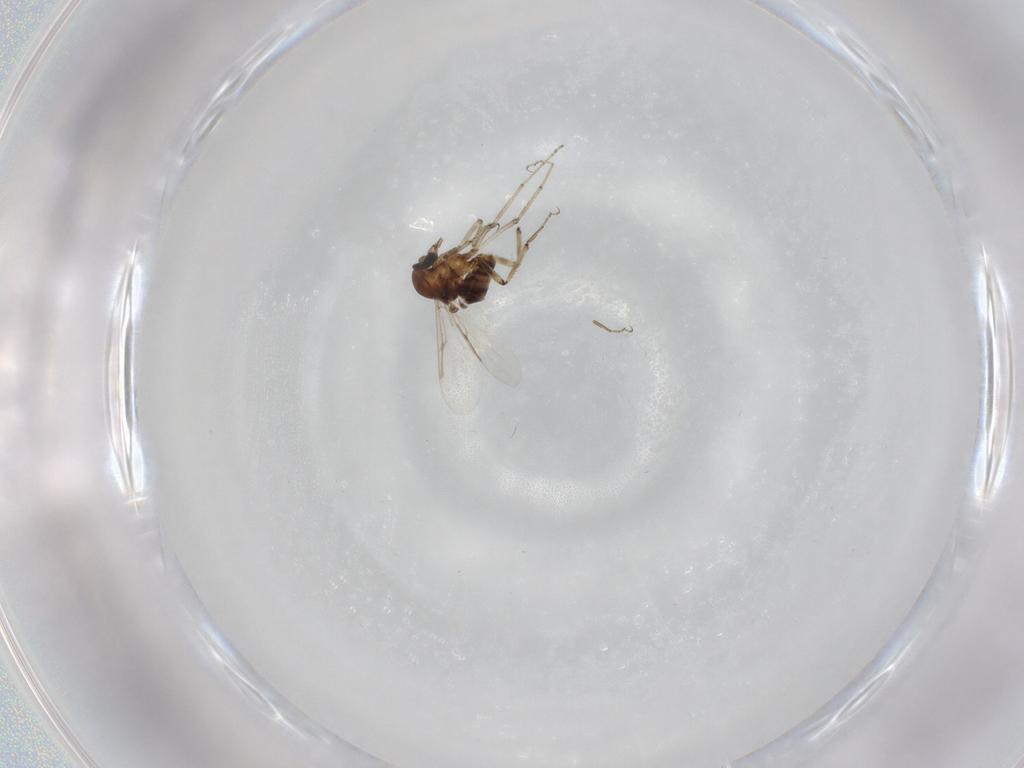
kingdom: Animalia
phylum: Arthropoda
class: Insecta
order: Diptera
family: Ceratopogonidae
